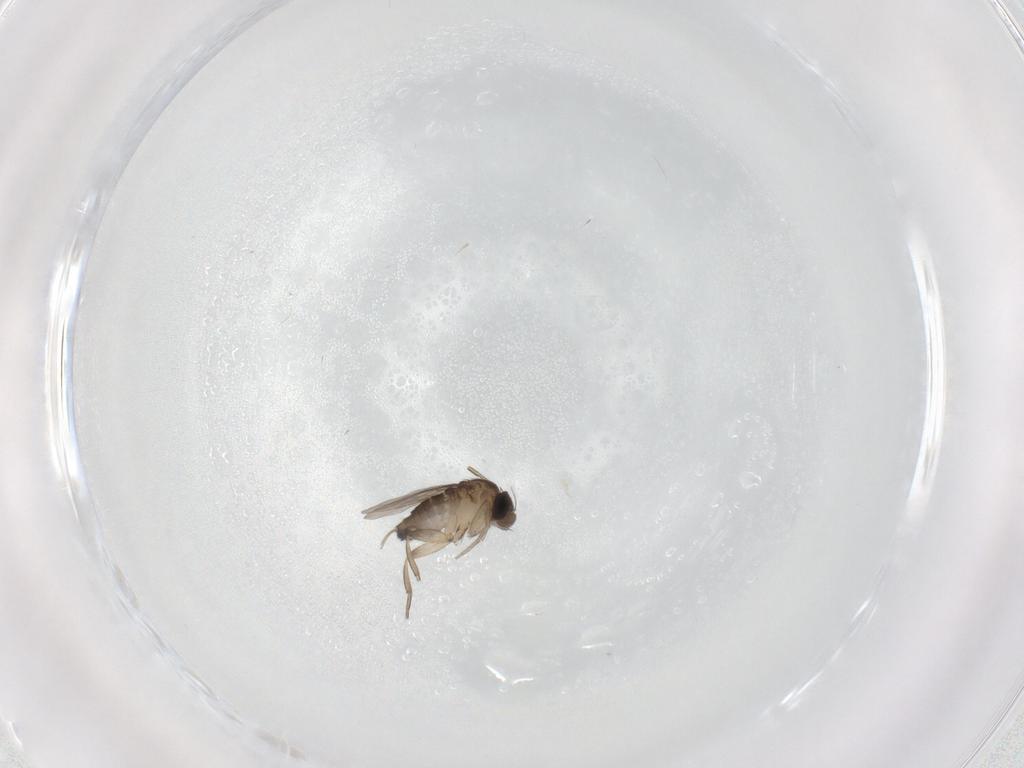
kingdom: Animalia
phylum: Arthropoda
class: Insecta
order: Diptera
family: Phoridae
